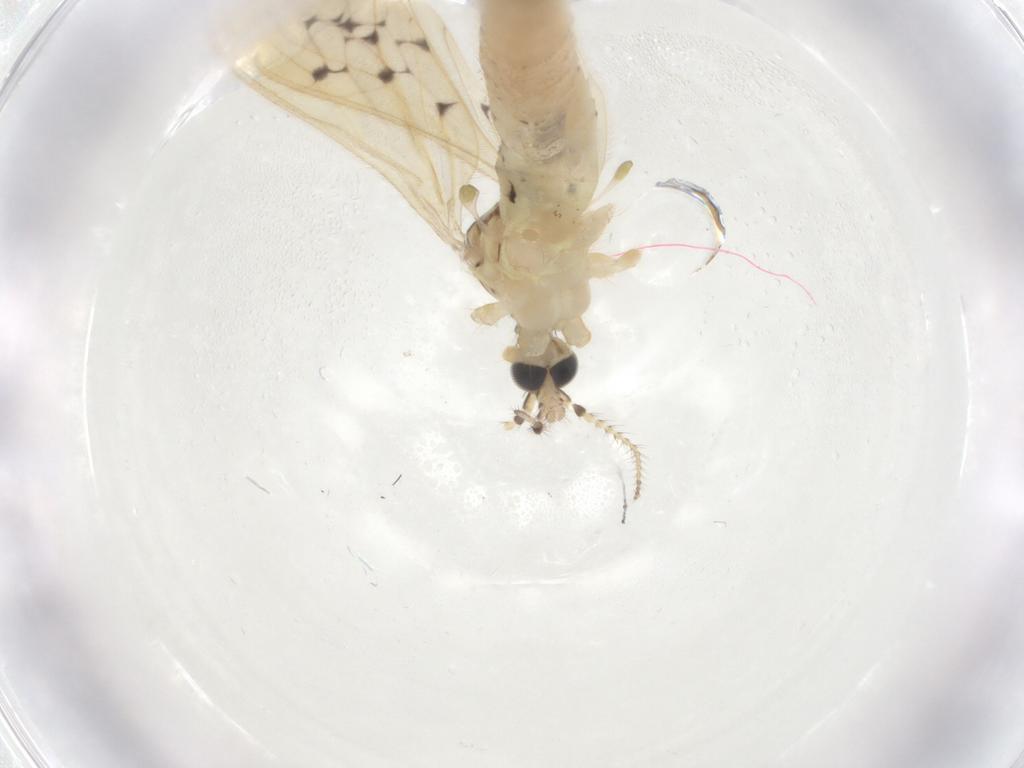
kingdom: Animalia
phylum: Arthropoda
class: Insecta
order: Diptera
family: Limoniidae
